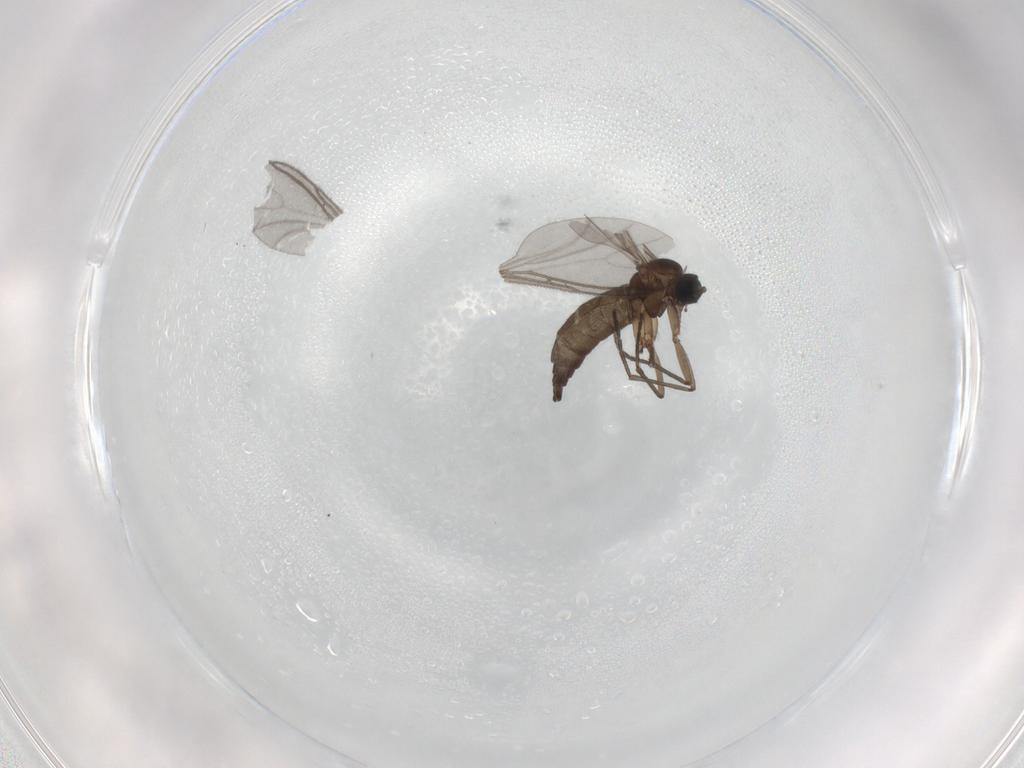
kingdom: Animalia
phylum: Arthropoda
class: Insecta
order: Diptera
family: Sciaridae
